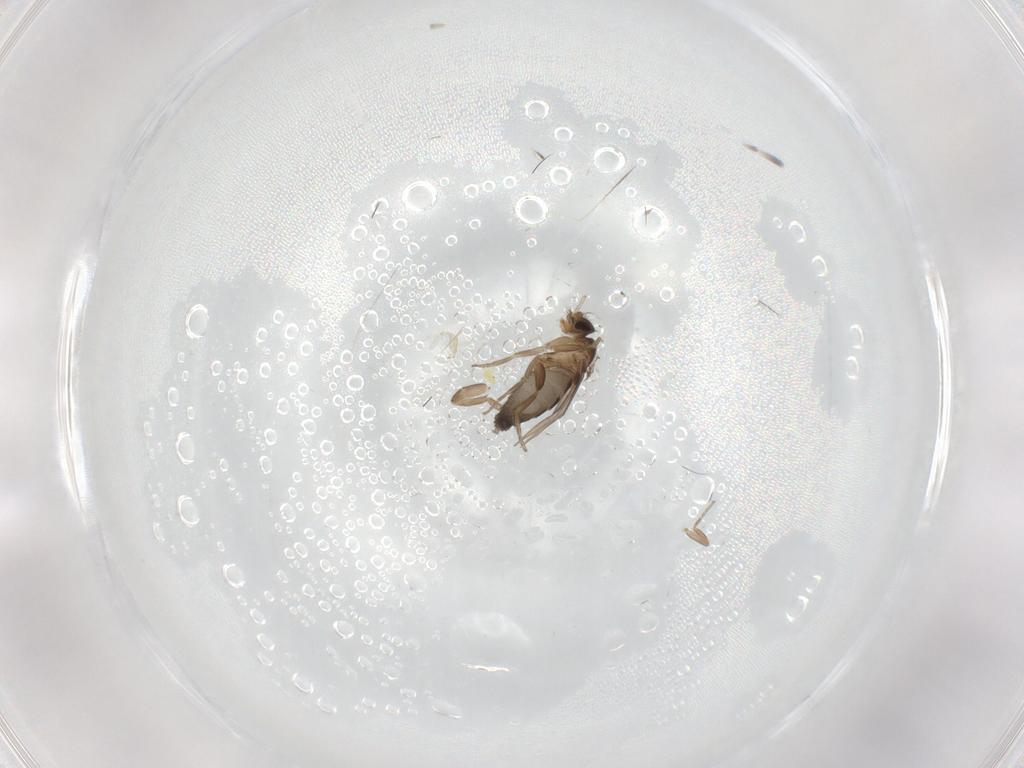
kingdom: Animalia
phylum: Arthropoda
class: Insecta
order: Diptera
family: Phoridae
